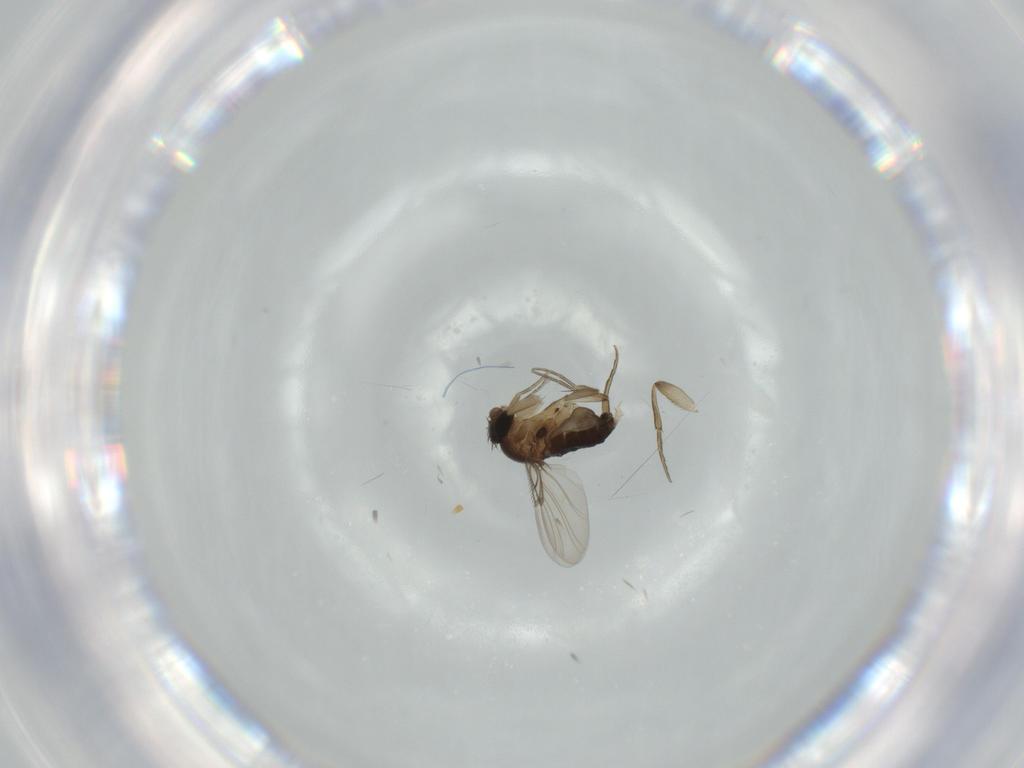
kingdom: Animalia
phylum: Arthropoda
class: Insecta
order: Diptera
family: Phoridae
